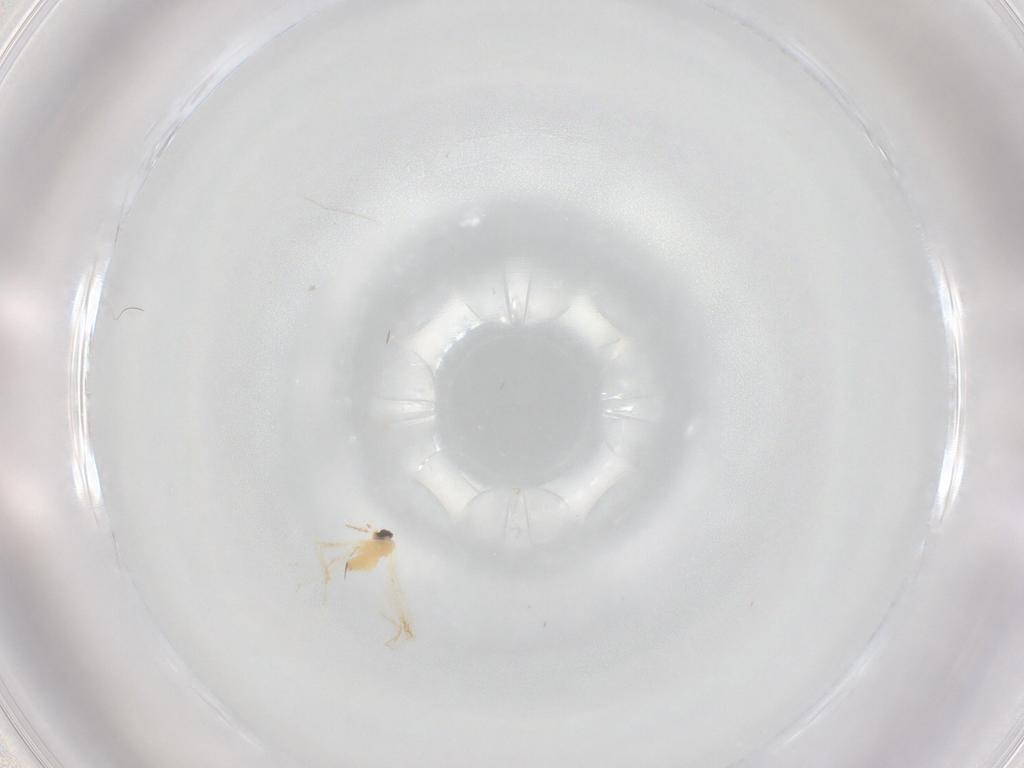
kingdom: Animalia
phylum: Arthropoda
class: Insecta
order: Diptera
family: Cecidomyiidae
